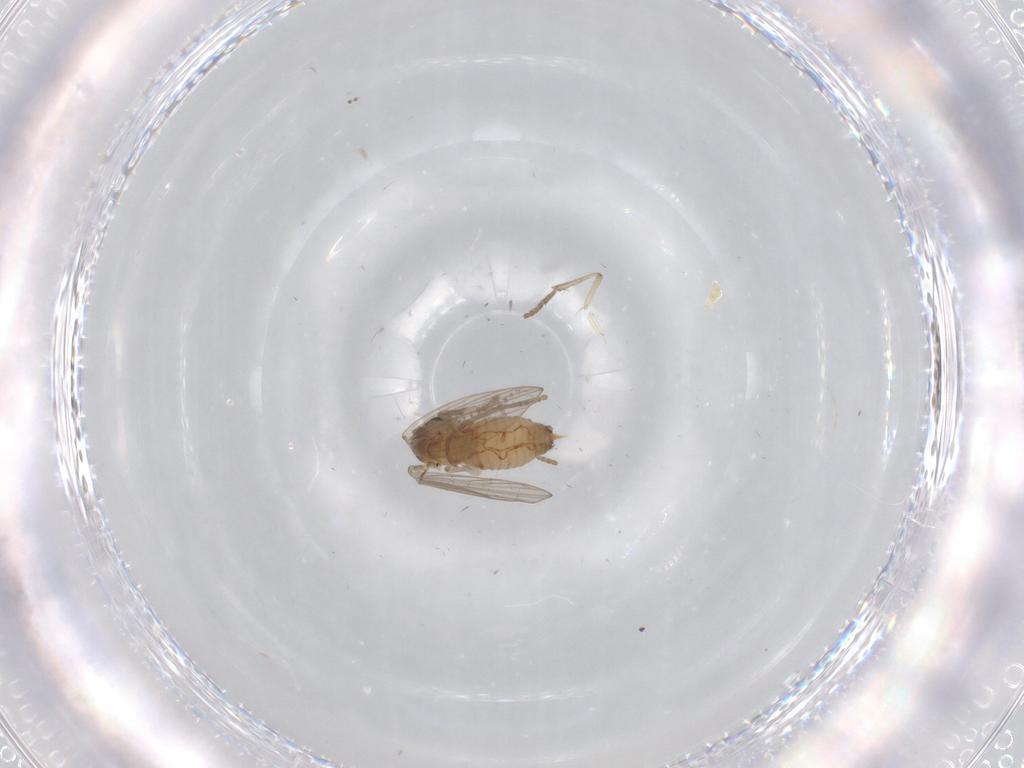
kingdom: Animalia
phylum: Arthropoda
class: Insecta
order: Diptera
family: Psychodidae
